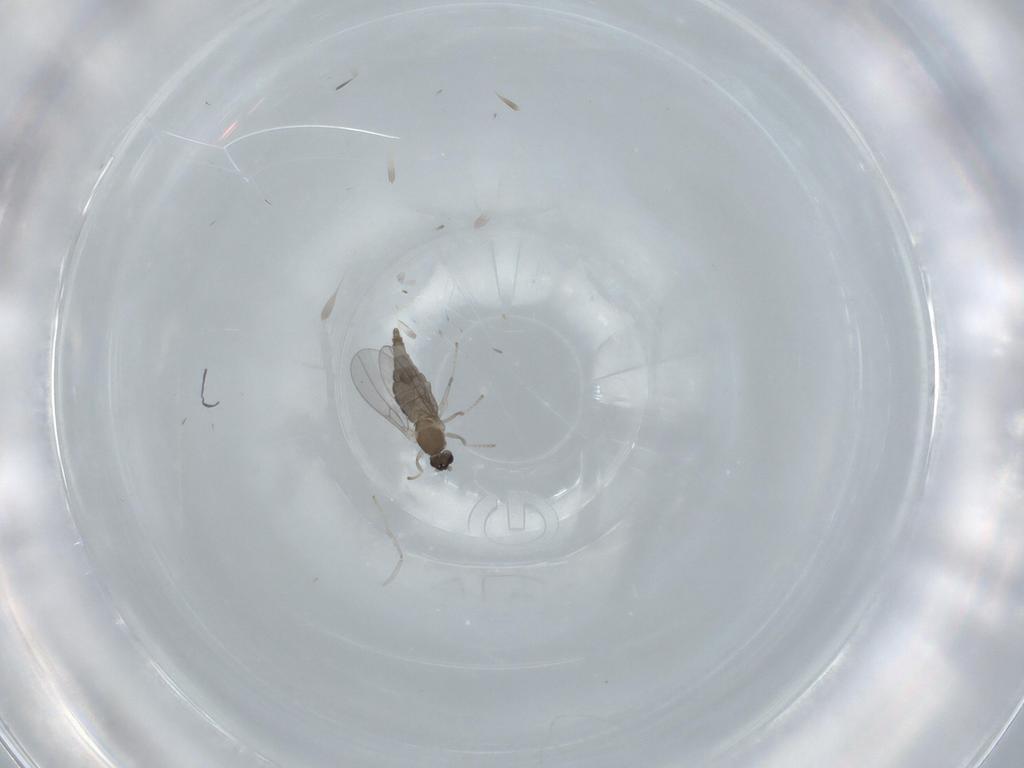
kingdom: Animalia
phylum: Arthropoda
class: Insecta
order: Diptera
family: Cecidomyiidae
